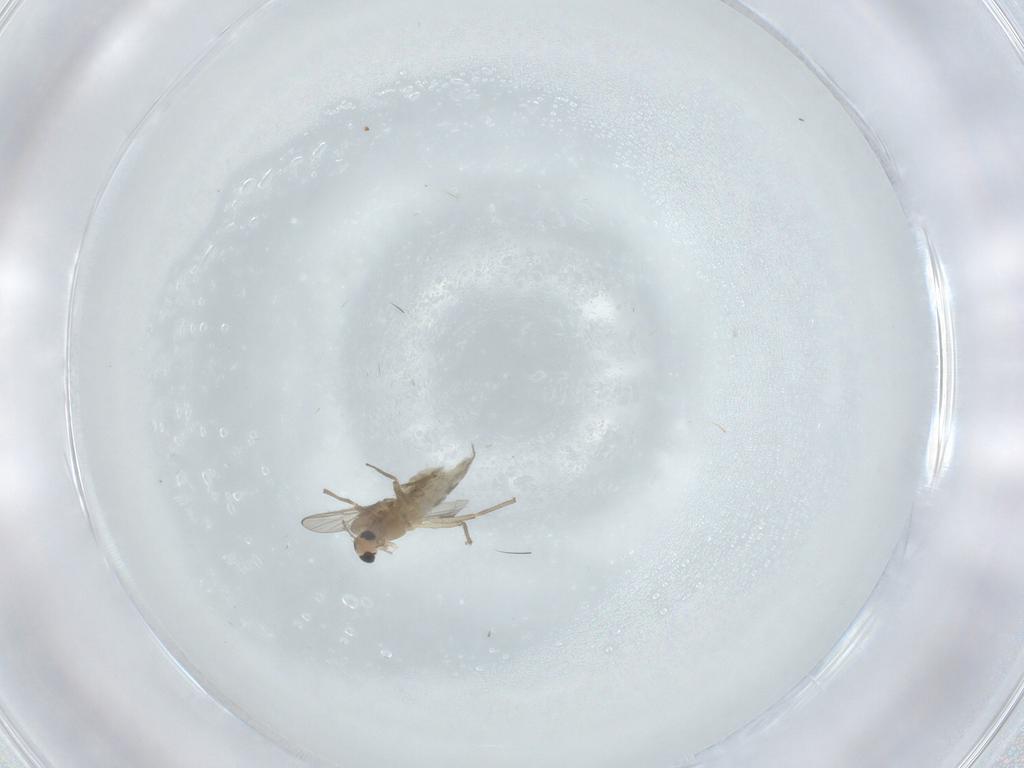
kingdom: Animalia
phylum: Arthropoda
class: Insecta
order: Diptera
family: Chironomidae
